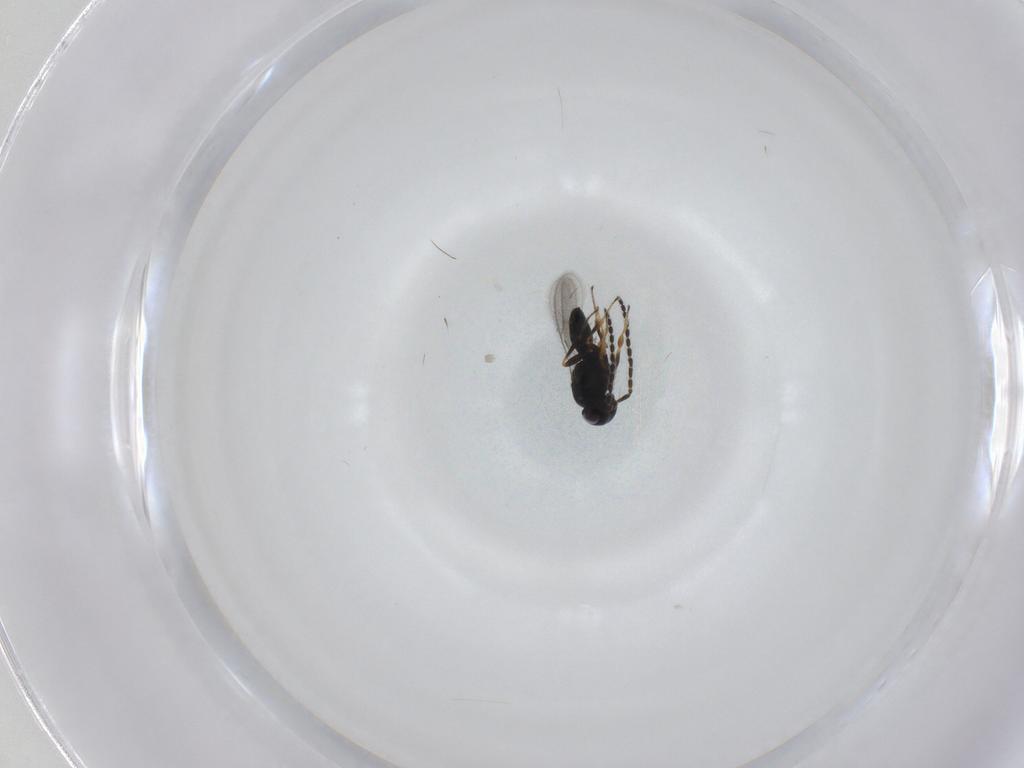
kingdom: Animalia
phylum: Arthropoda
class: Insecta
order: Hymenoptera
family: Scelionidae
